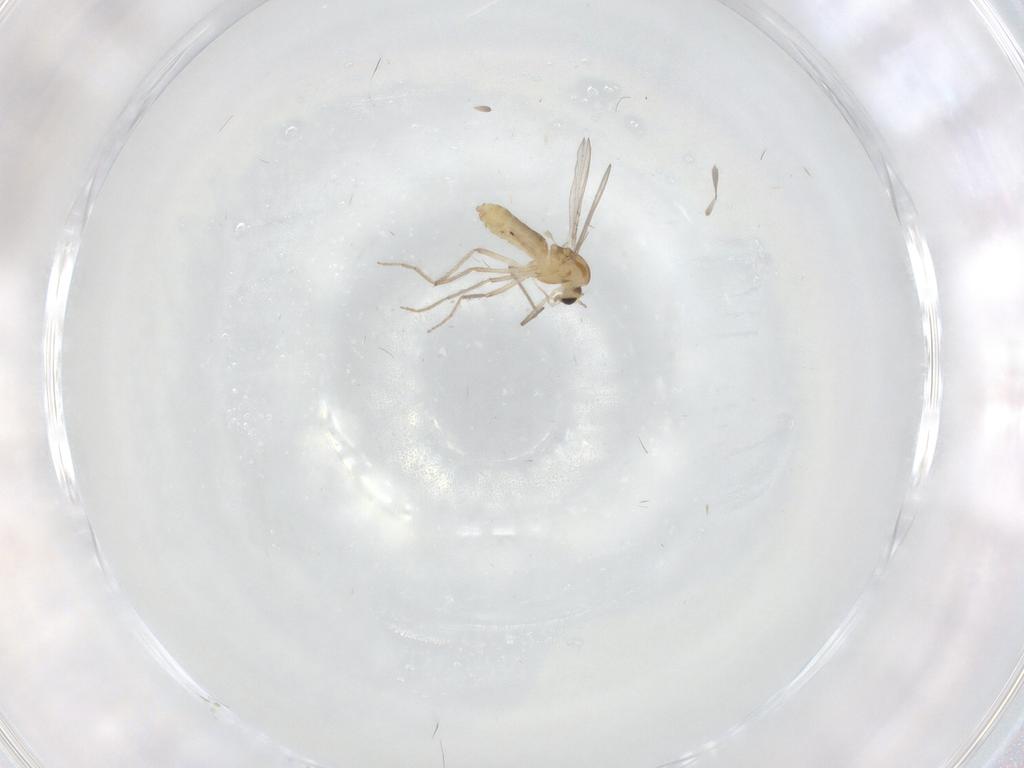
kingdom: Animalia
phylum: Arthropoda
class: Insecta
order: Diptera
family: Chironomidae
